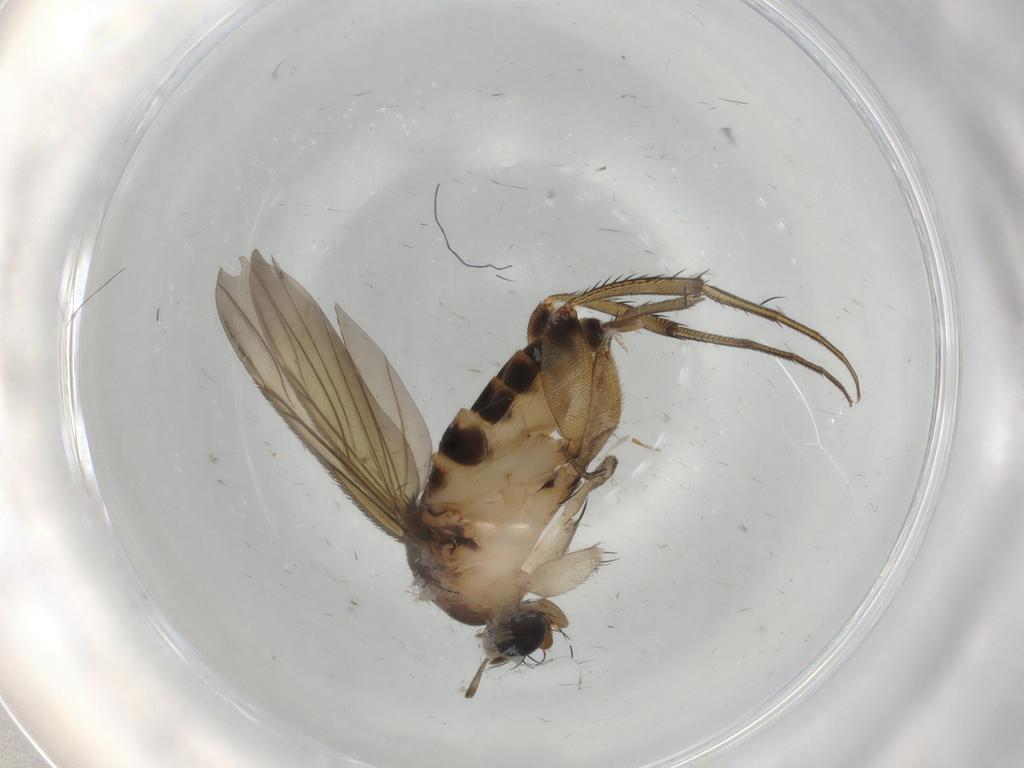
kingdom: Animalia
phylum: Arthropoda
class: Insecta
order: Diptera
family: Phoridae
